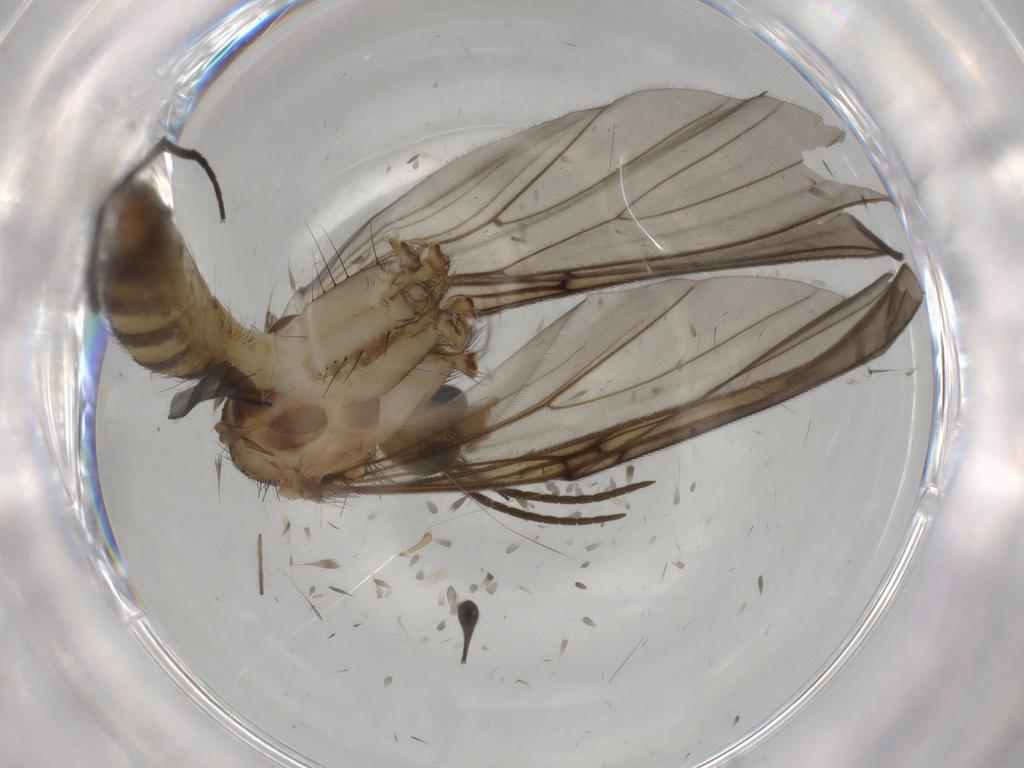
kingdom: Animalia
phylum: Arthropoda
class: Insecta
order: Diptera
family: Mycetophilidae
